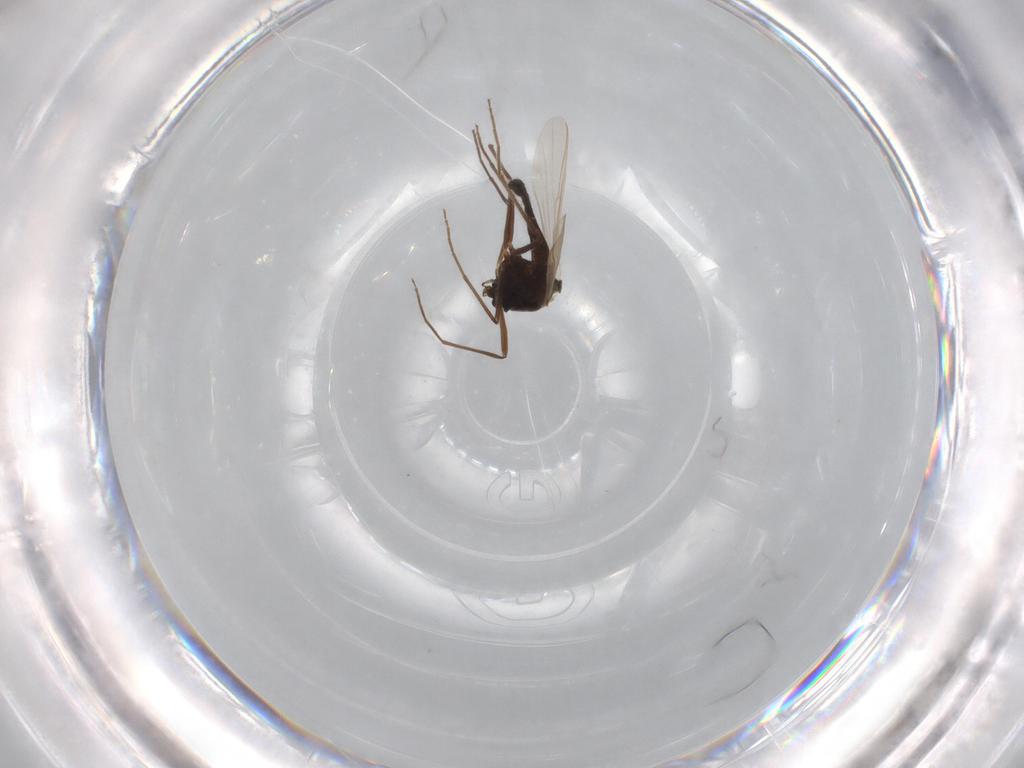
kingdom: Animalia
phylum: Arthropoda
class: Insecta
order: Diptera
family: Chironomidae
